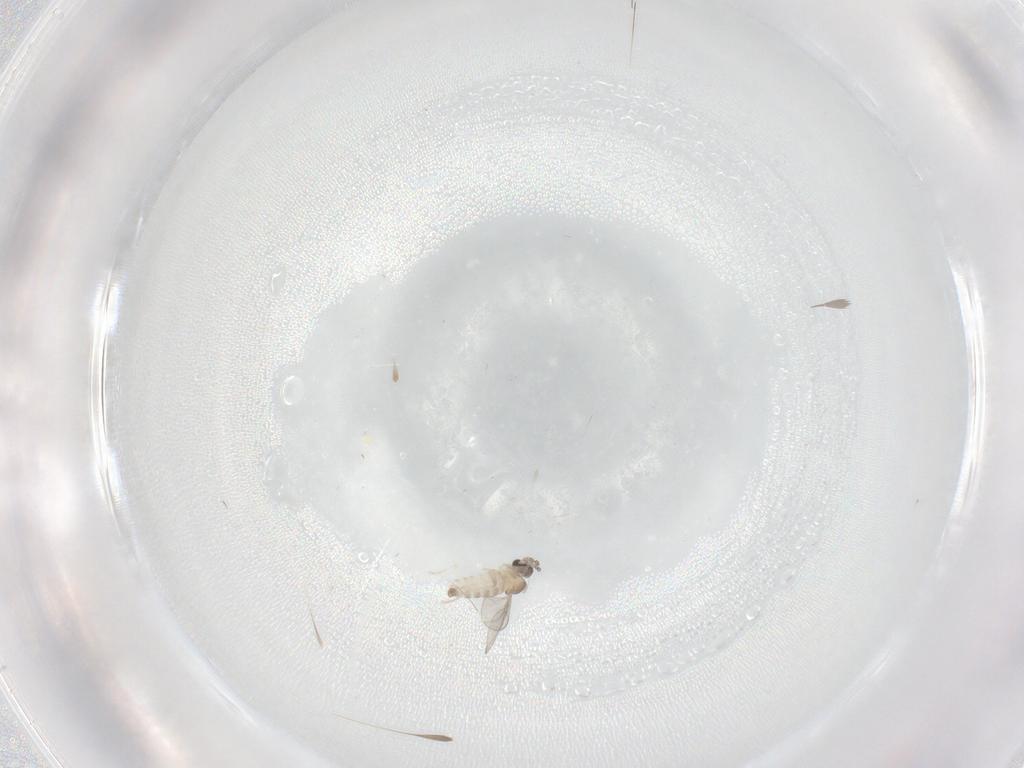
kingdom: Animalia
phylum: Arthropoda
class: Insecta
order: Diptera
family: Cecidomyiidae
